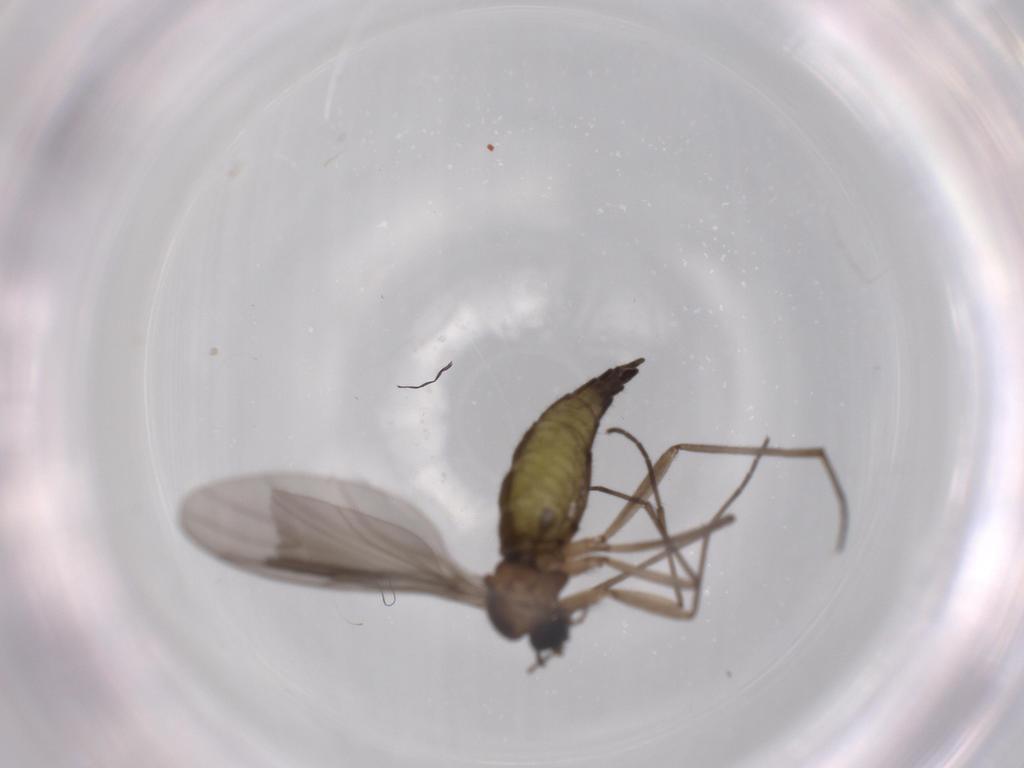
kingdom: Animalia
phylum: Arthropoda
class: Insecta
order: Diptera
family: Sciaridae
